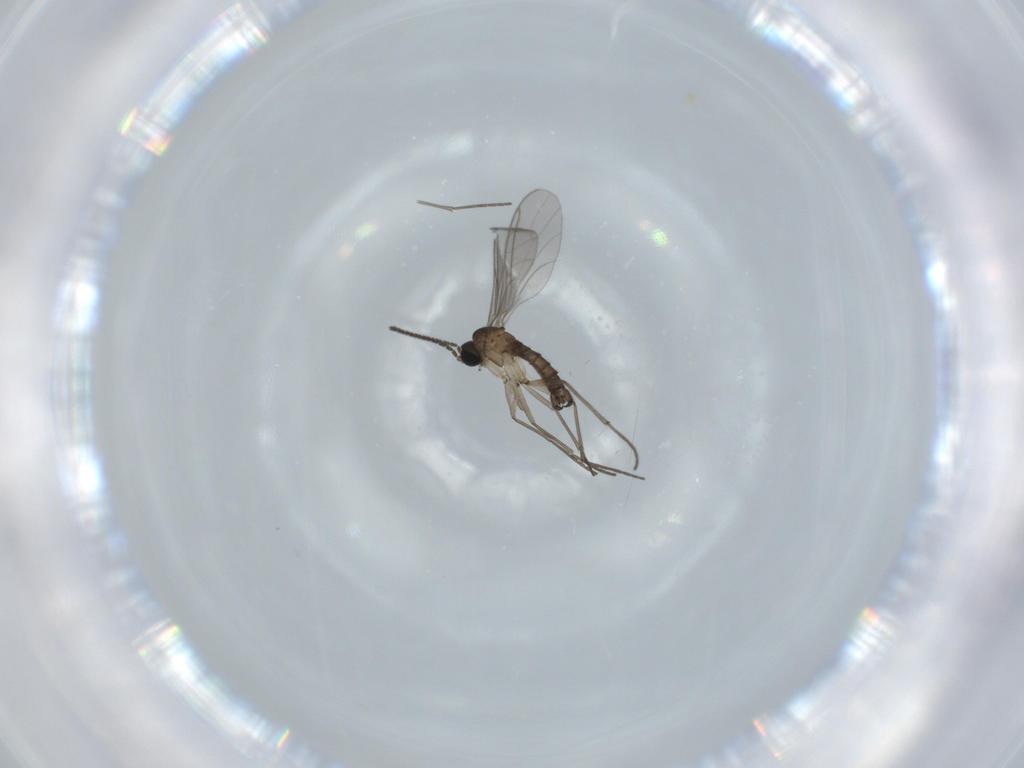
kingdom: Animalia
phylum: Arthropoda
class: Insecta
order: Diptera
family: Sciaridae
